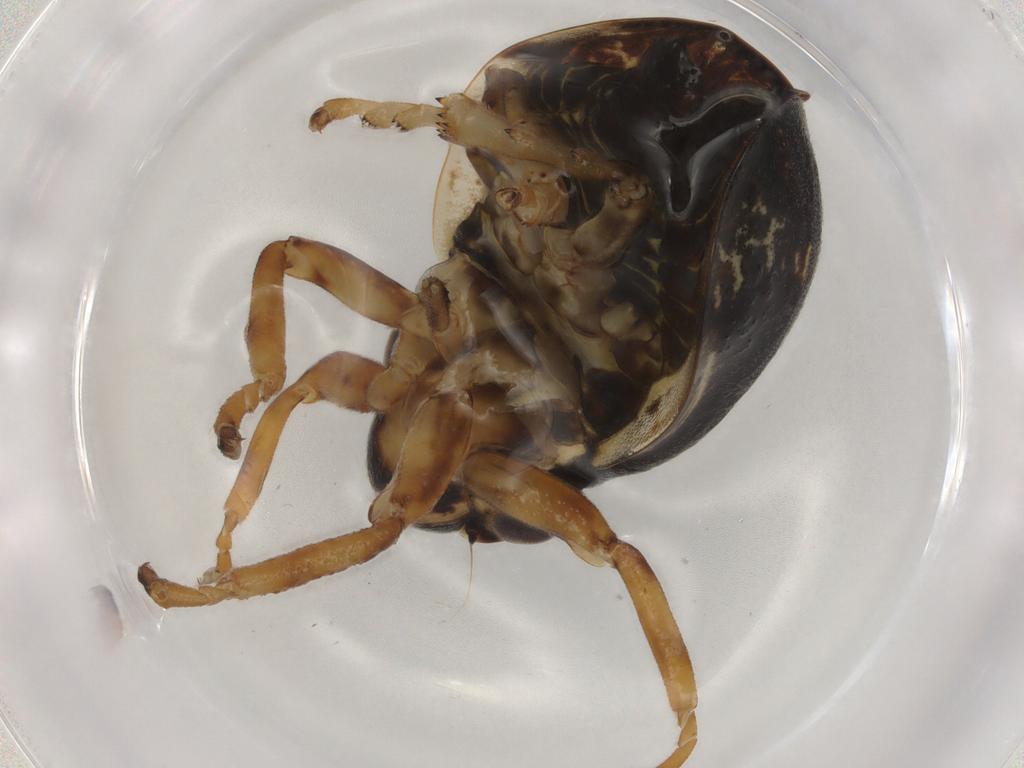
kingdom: Animalia
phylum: Arthropoda
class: Insecta
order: Hemiptera
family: Aphrophoridae
